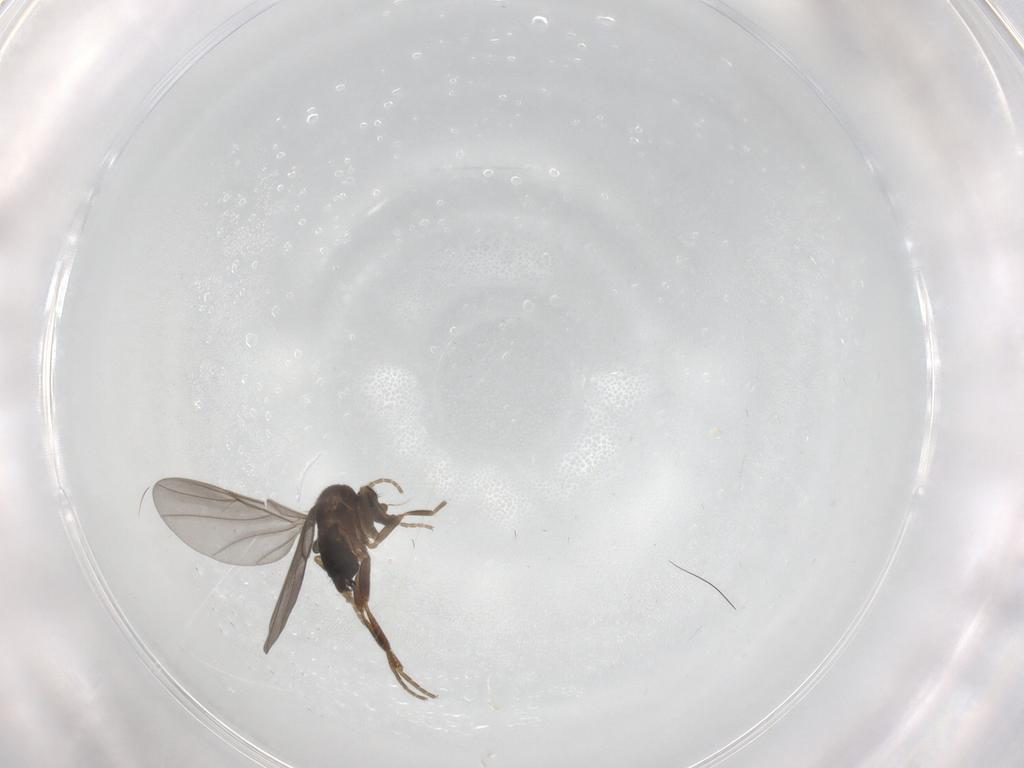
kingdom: Animalia
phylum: Arthropoda
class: Insecta
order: Diptera
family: Phoridae
